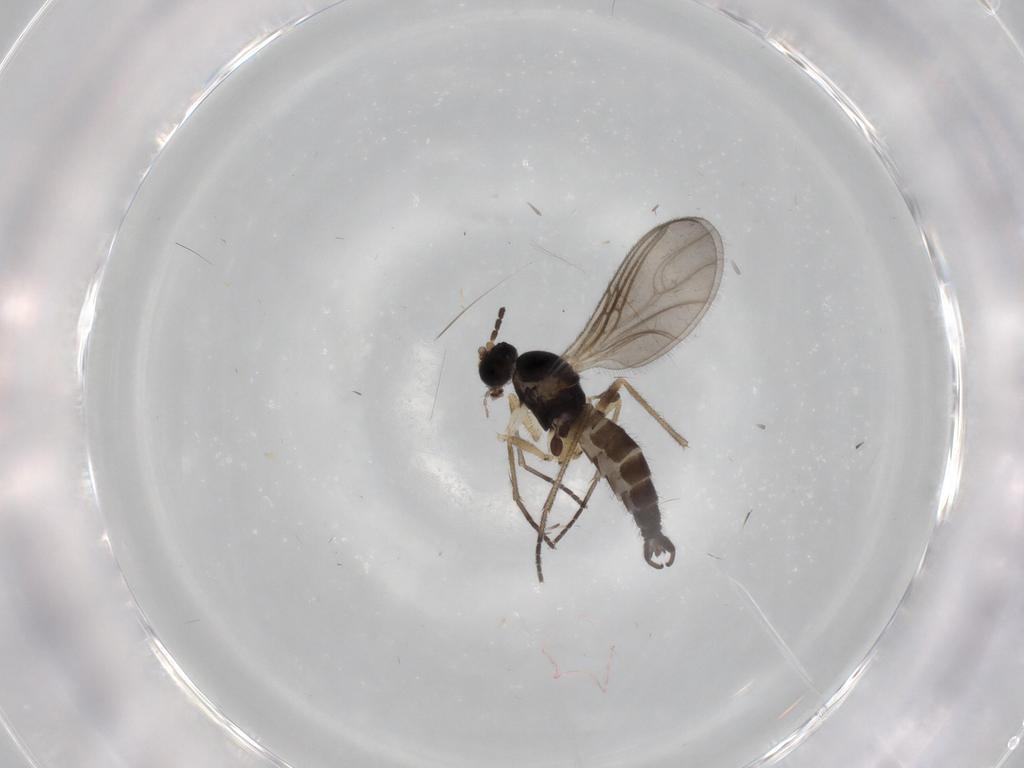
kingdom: Animalia
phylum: Arthropoda
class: Insecta
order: Diptera
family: Sciaridae
